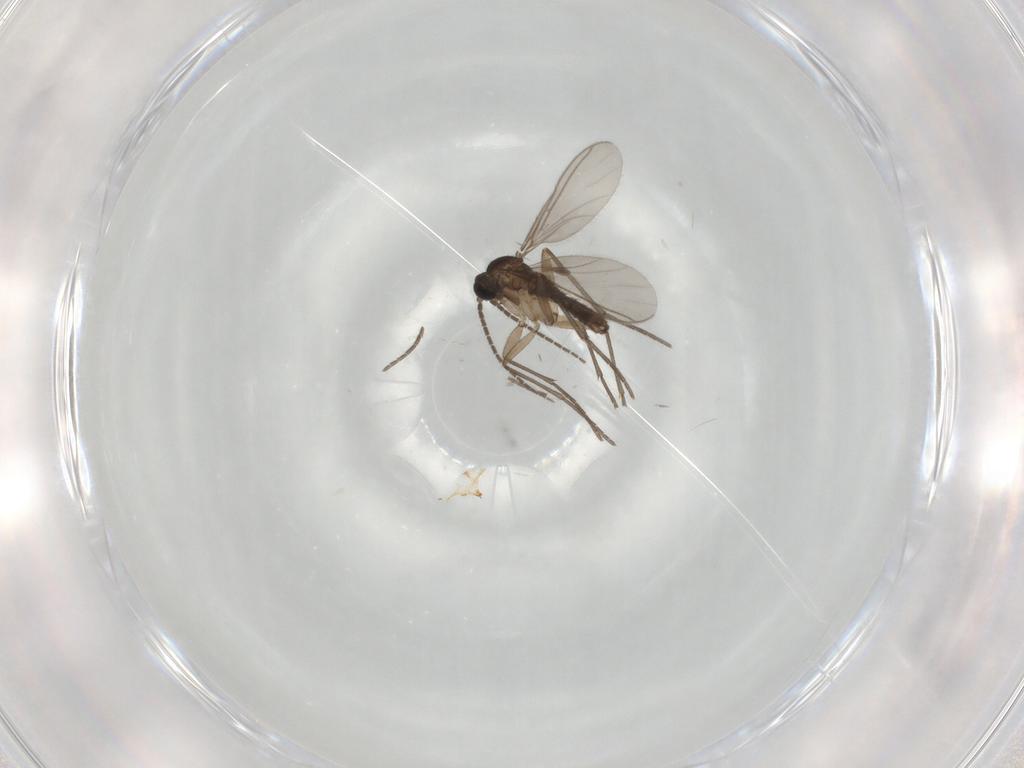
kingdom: Animalia
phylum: Arthropoda
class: Insecta
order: Diptera
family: Sciaridae
